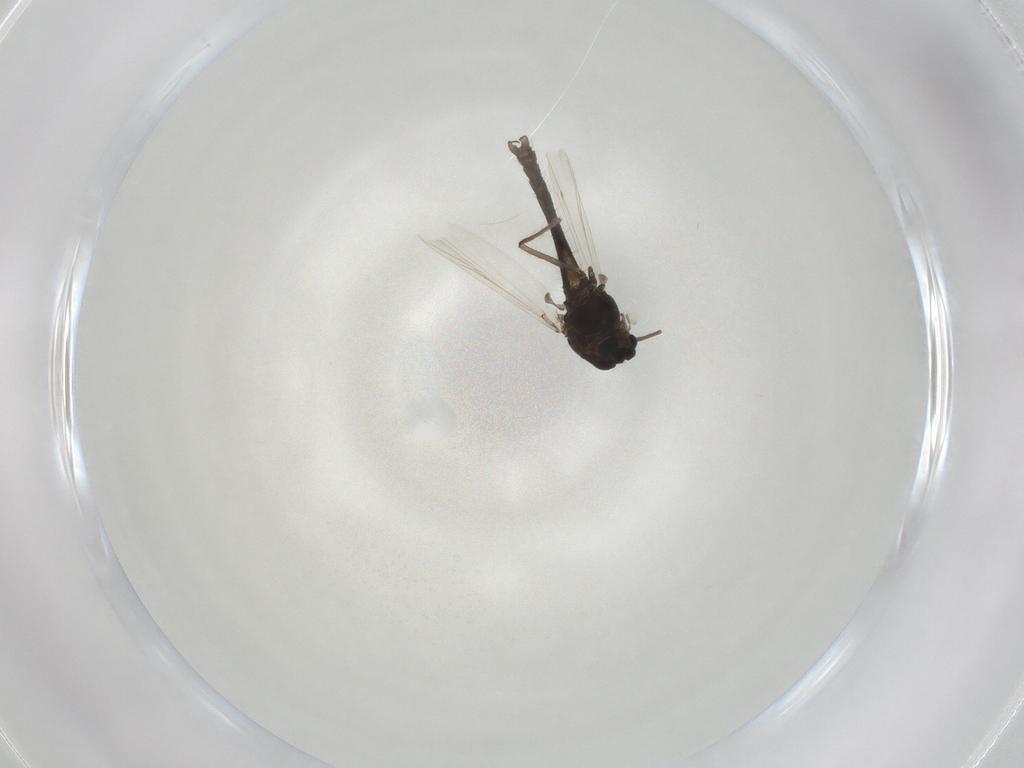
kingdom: Animalia
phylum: Arthropoda
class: Insecta
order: Diptera
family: Chironomidae
